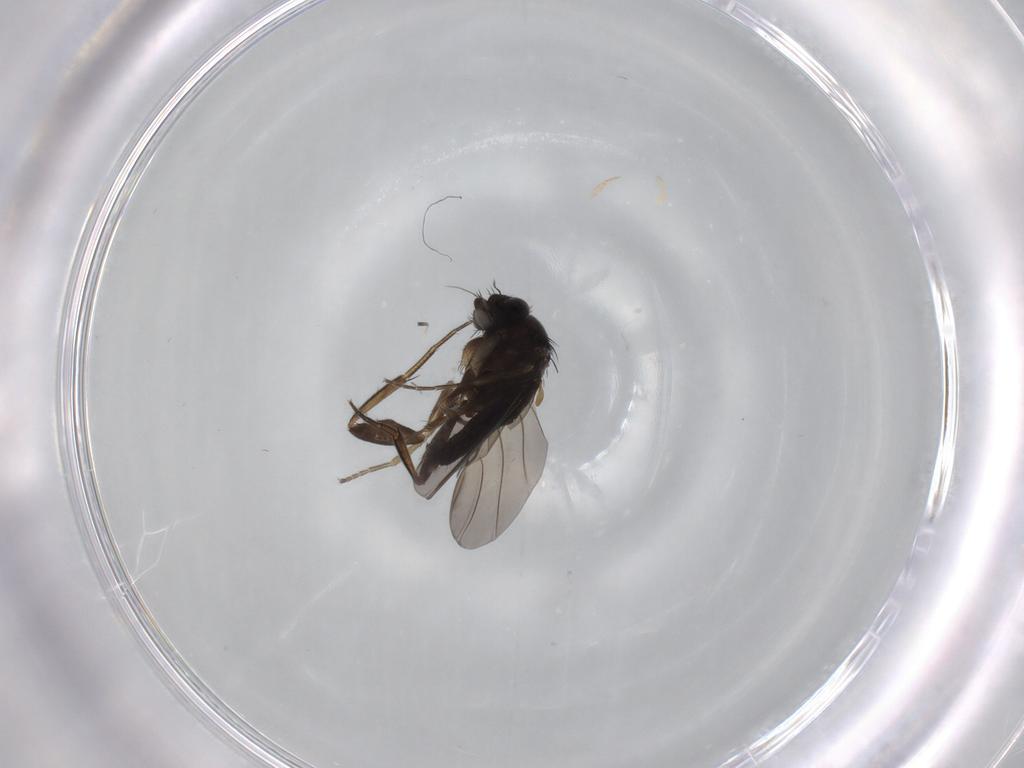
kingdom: Animalia
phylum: Arthropoda
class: Insecta
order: Diptera
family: Phoridae
